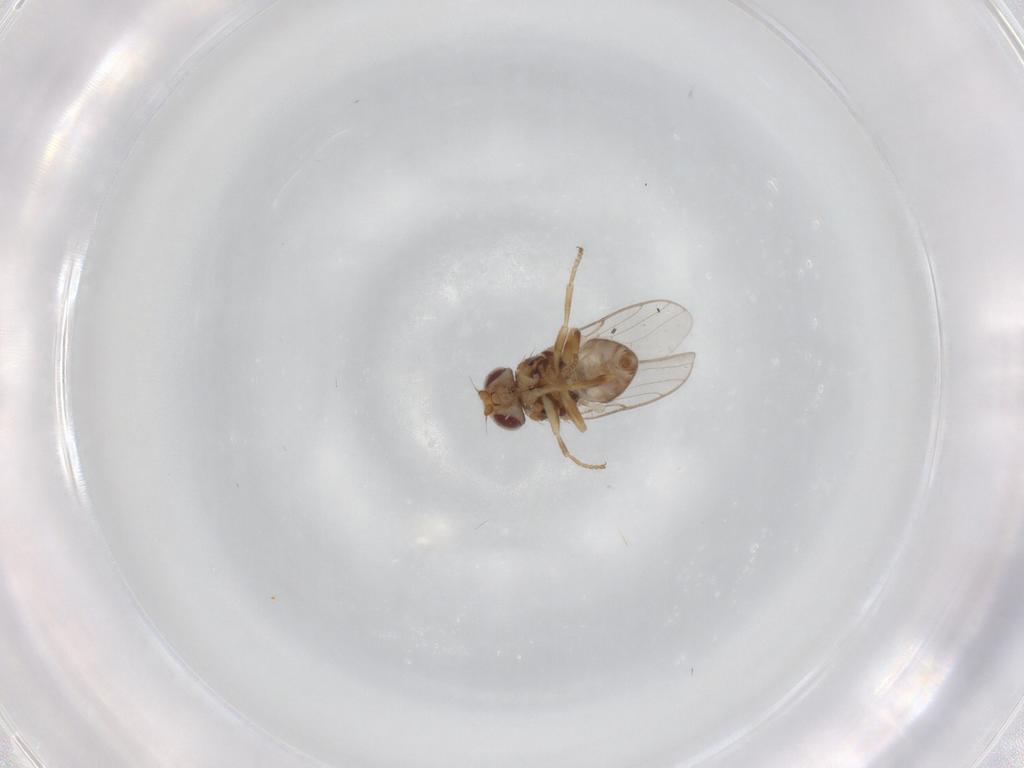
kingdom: Animalia
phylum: Arthropoda
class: Insecta
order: Diptera
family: Chloropidae
